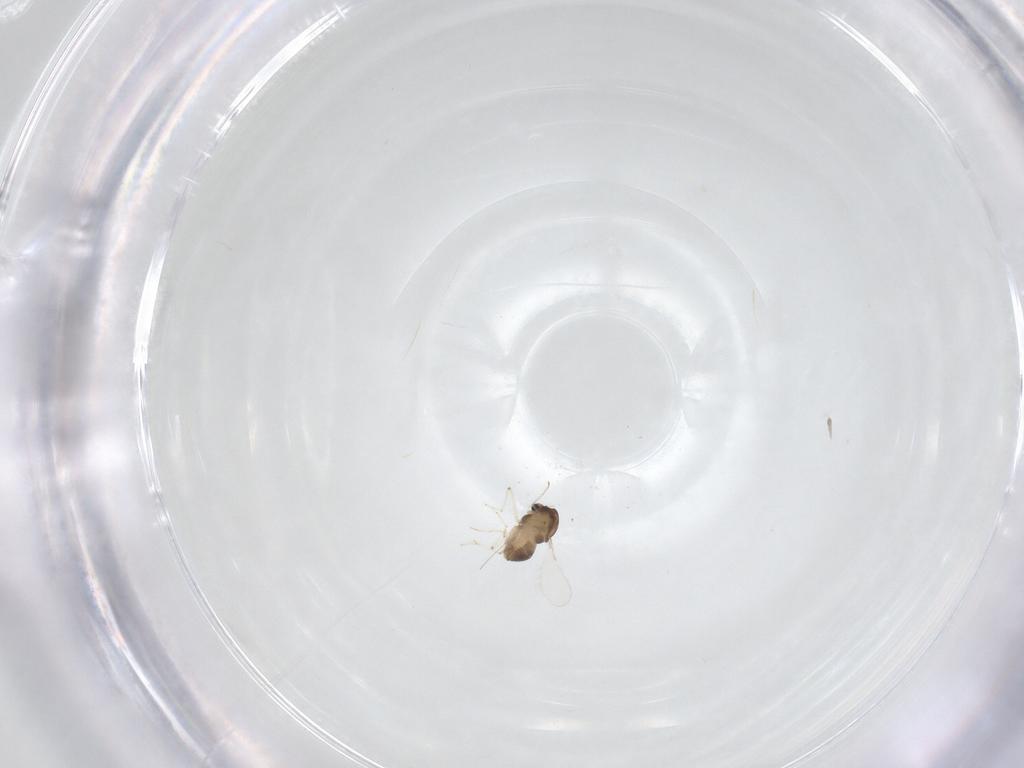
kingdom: Animalia
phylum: Arthropoda
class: Insecta
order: Diptera
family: Chironomidae
